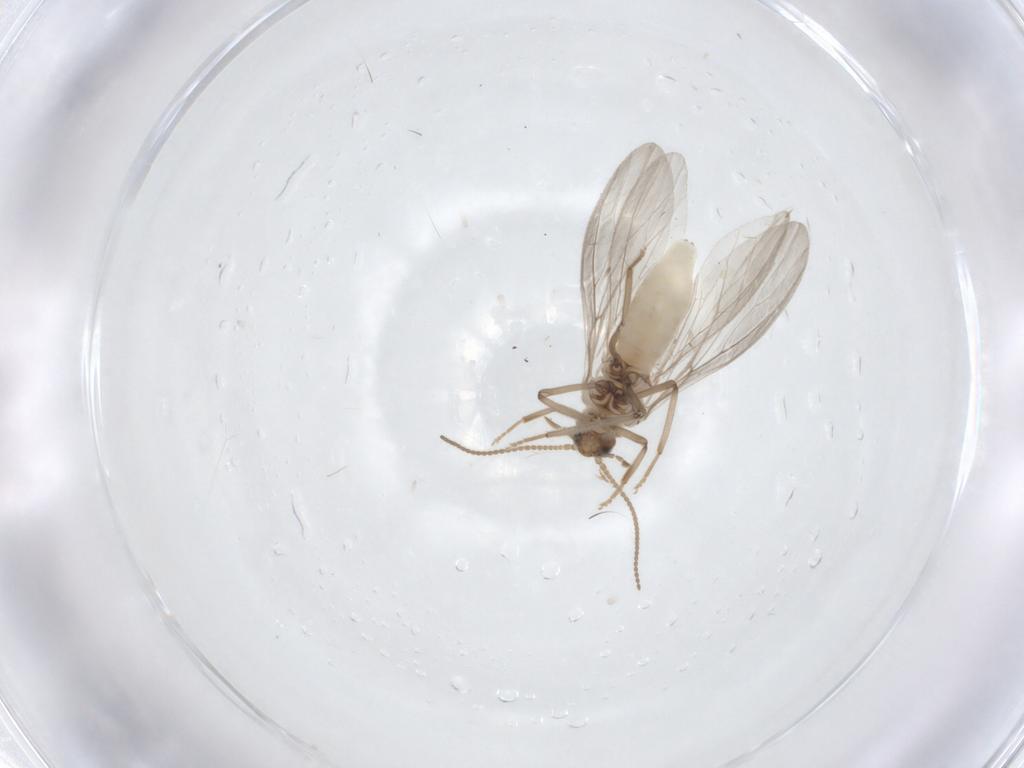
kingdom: Animalia
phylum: Arthropoda
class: Insecta
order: Neuroptera
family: Coniopterygidae
